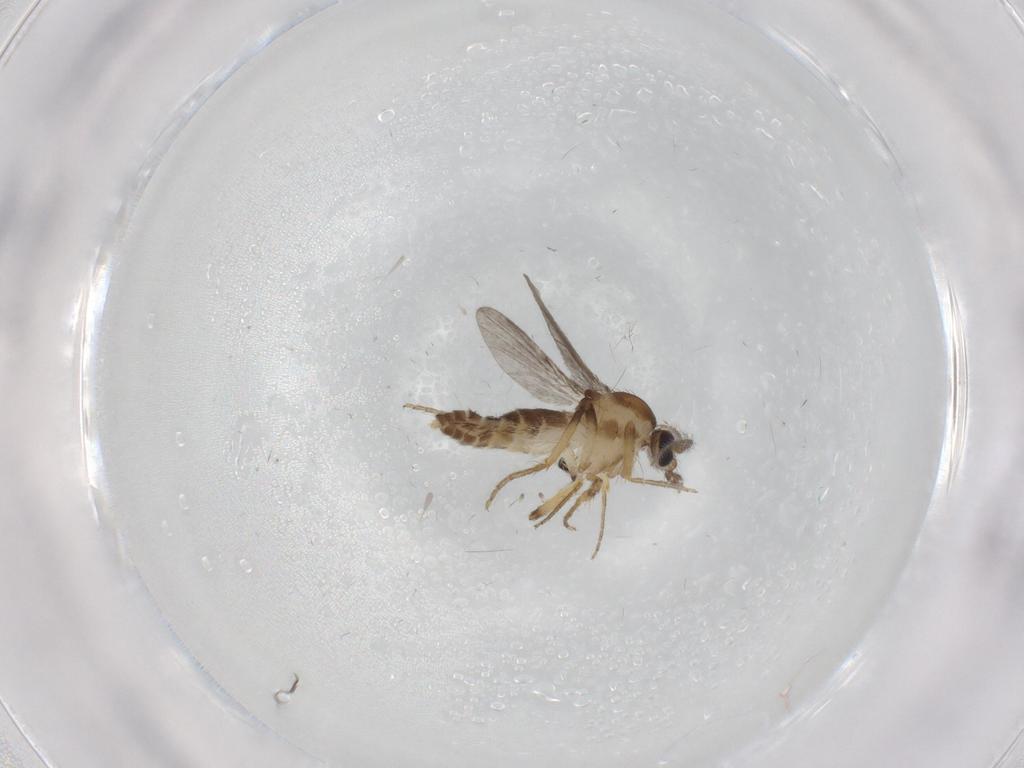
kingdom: Animalia
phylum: Arthropoda
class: Insecta
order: Diptera
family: Ceratopogonidae
